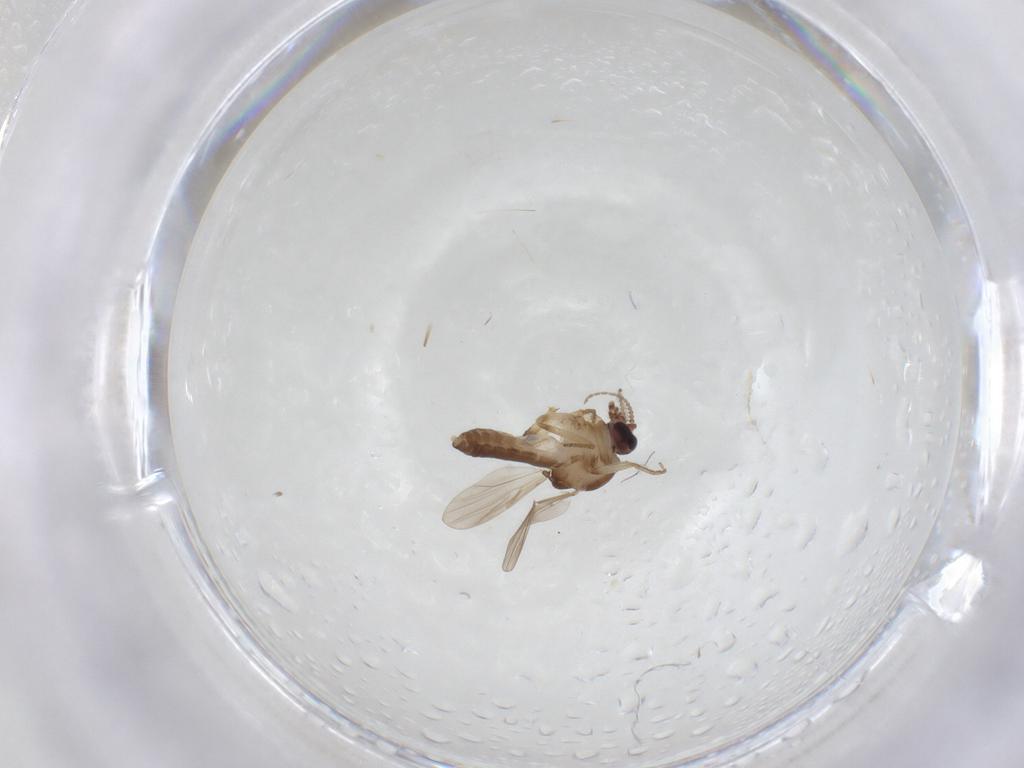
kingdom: Animalia
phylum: Arthropoda
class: Insecta
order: Diptera
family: Ceratopogonidae
